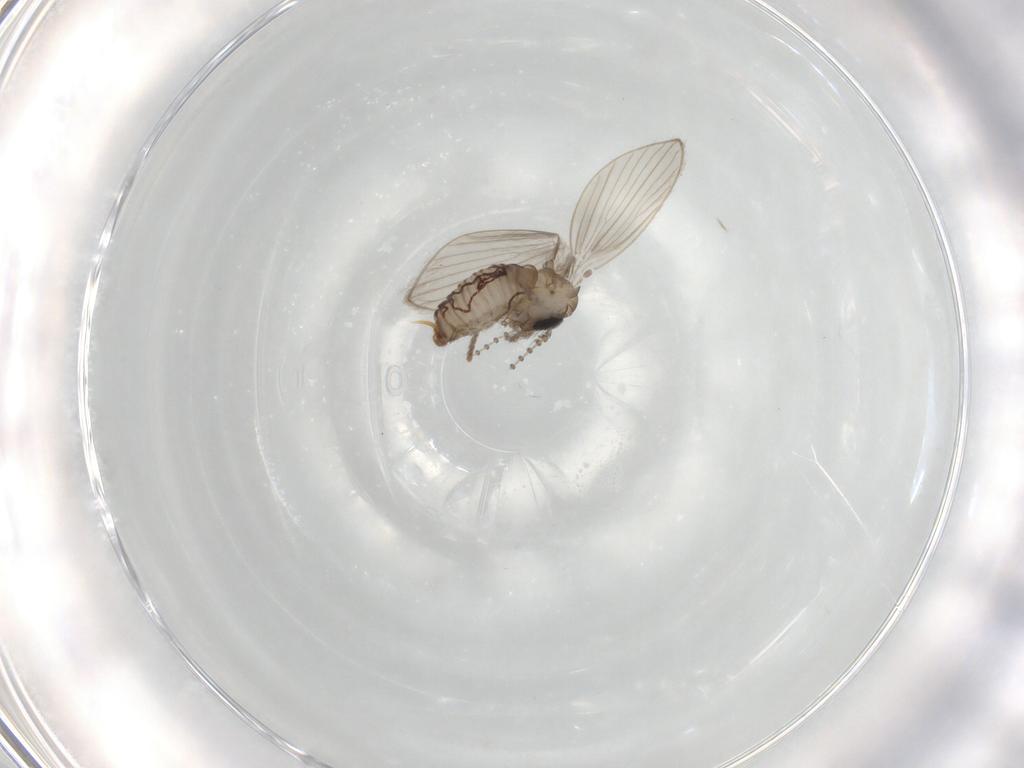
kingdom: Animalia
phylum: Arthropoda
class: Insecta
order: Diptera
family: Psychodidae
